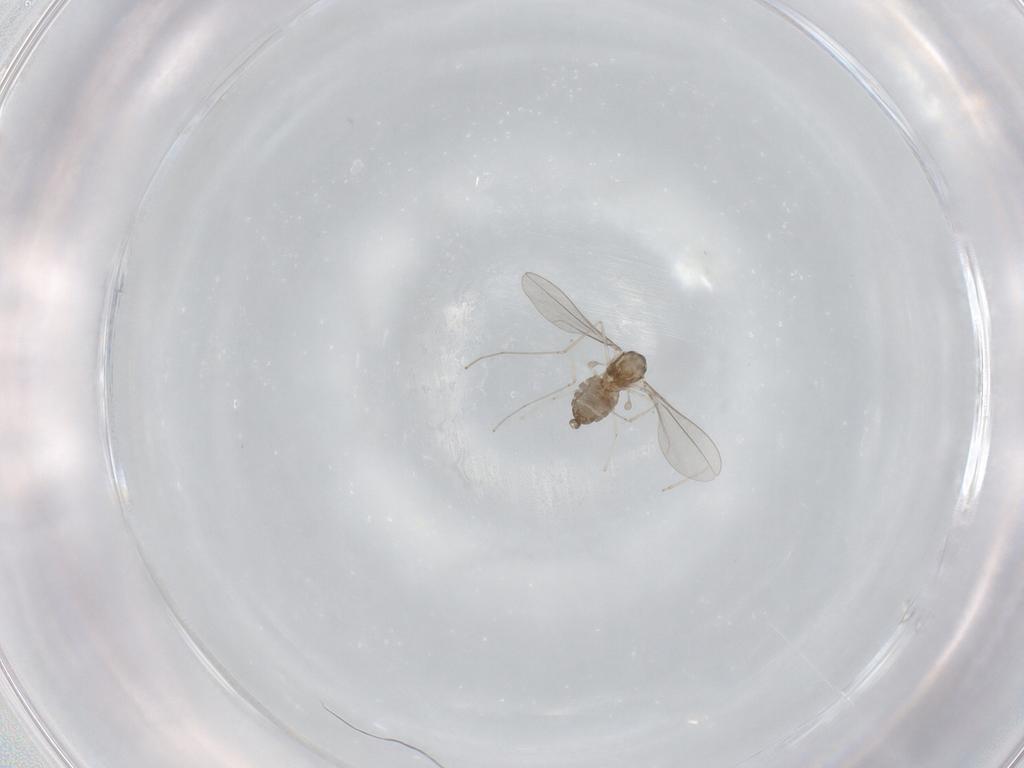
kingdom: Animalia
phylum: Arthropoda
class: Insecta
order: Diptera
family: Cecidomyiidae
